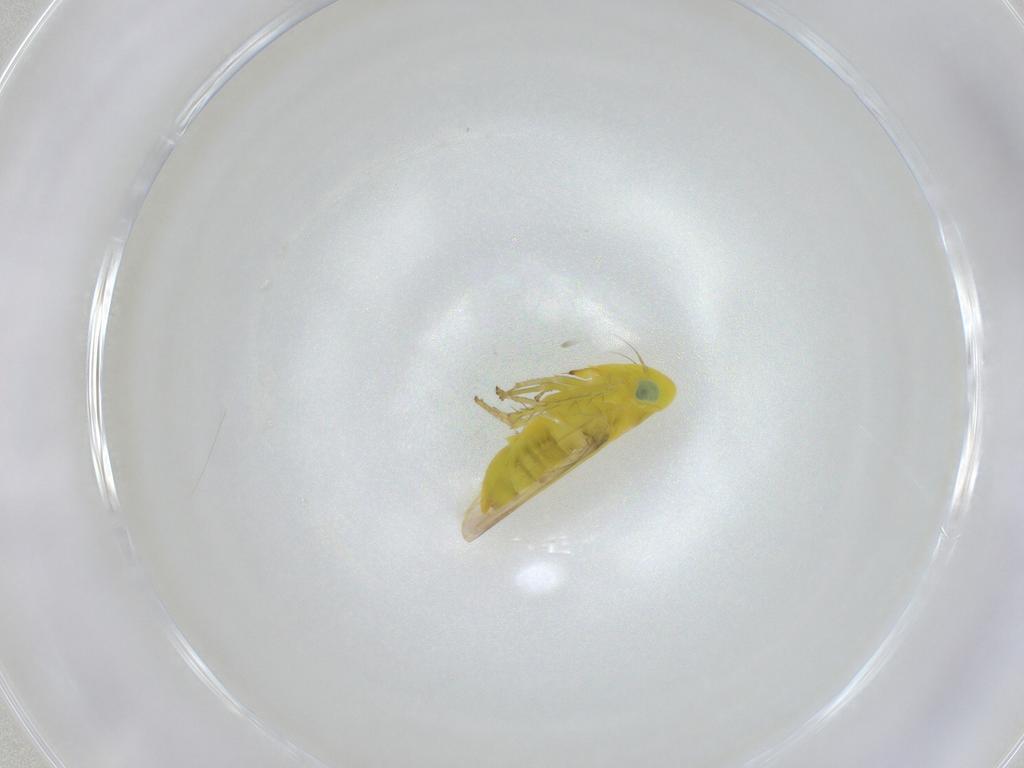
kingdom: Animalia
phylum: Arthropoda
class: Insecta
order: Hemiptera
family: Cicadellidae
